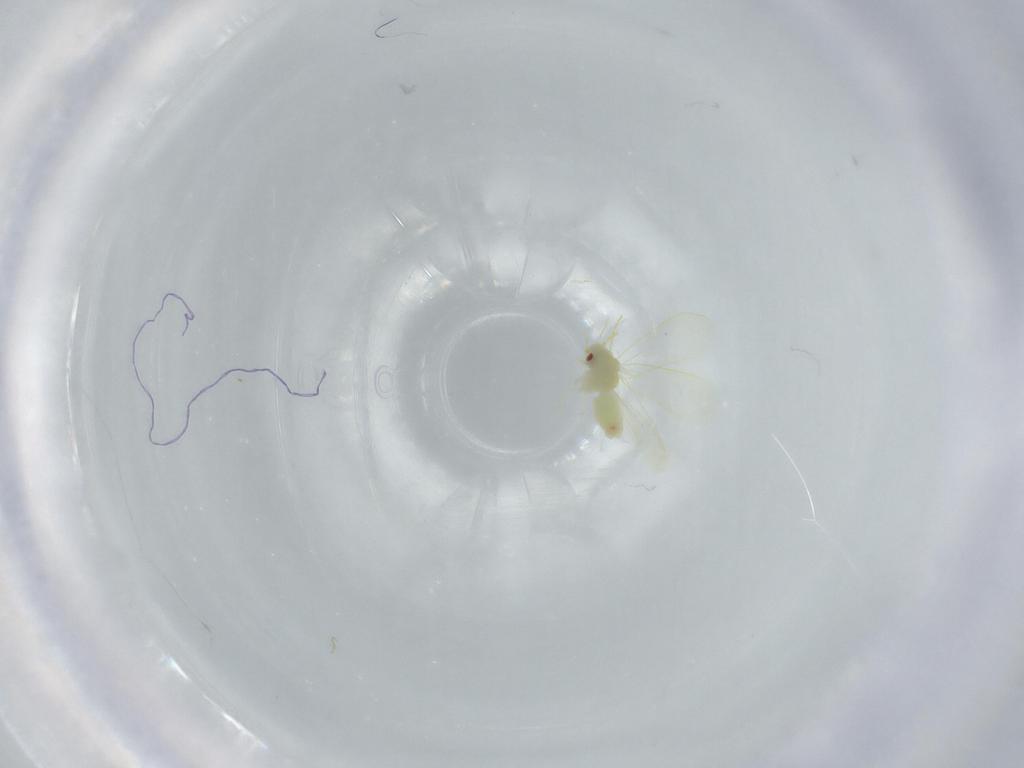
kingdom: Animalia
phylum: Arthropoda
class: Insecta
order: Hemiptera
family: Aleyrodidae
